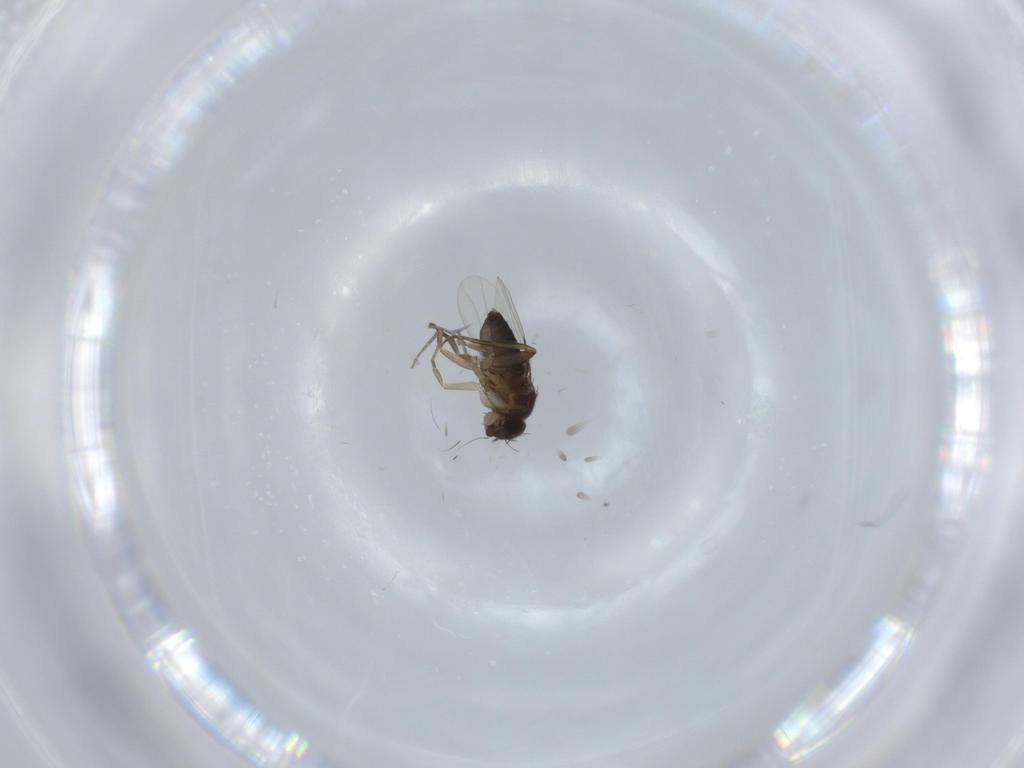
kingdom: Animalia
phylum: Arthropoda
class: Insecta
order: Diptera
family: Phoridae
